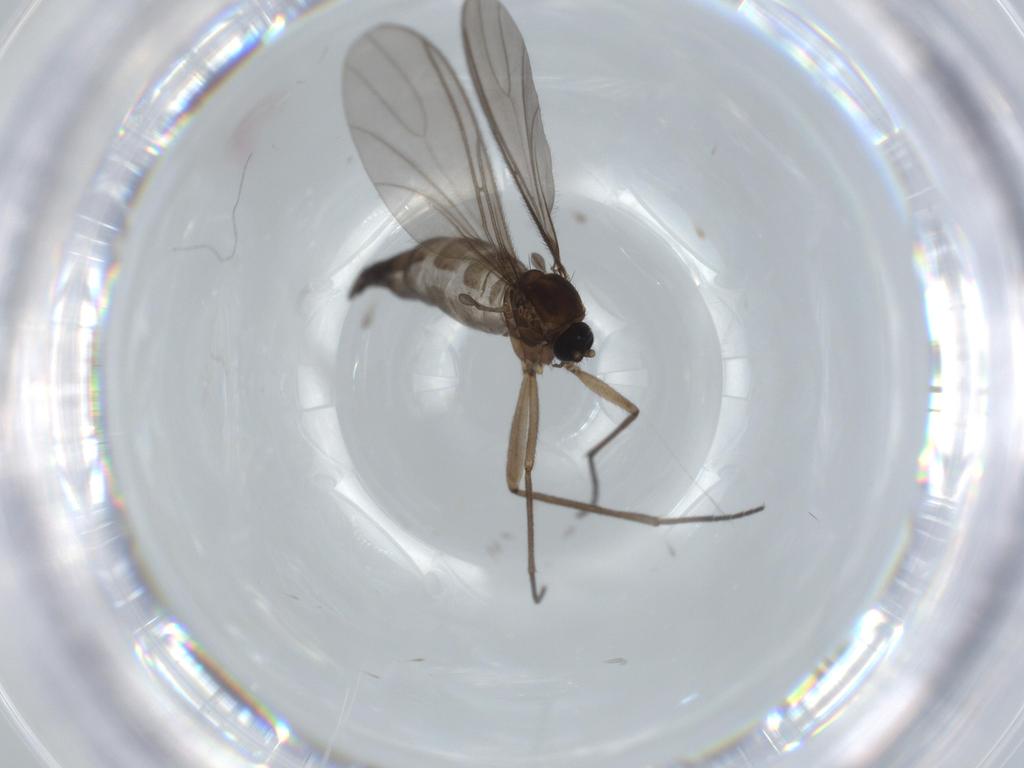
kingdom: Animalia
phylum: Arthropoda
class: Insecta
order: Diptera
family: Sciaridae
